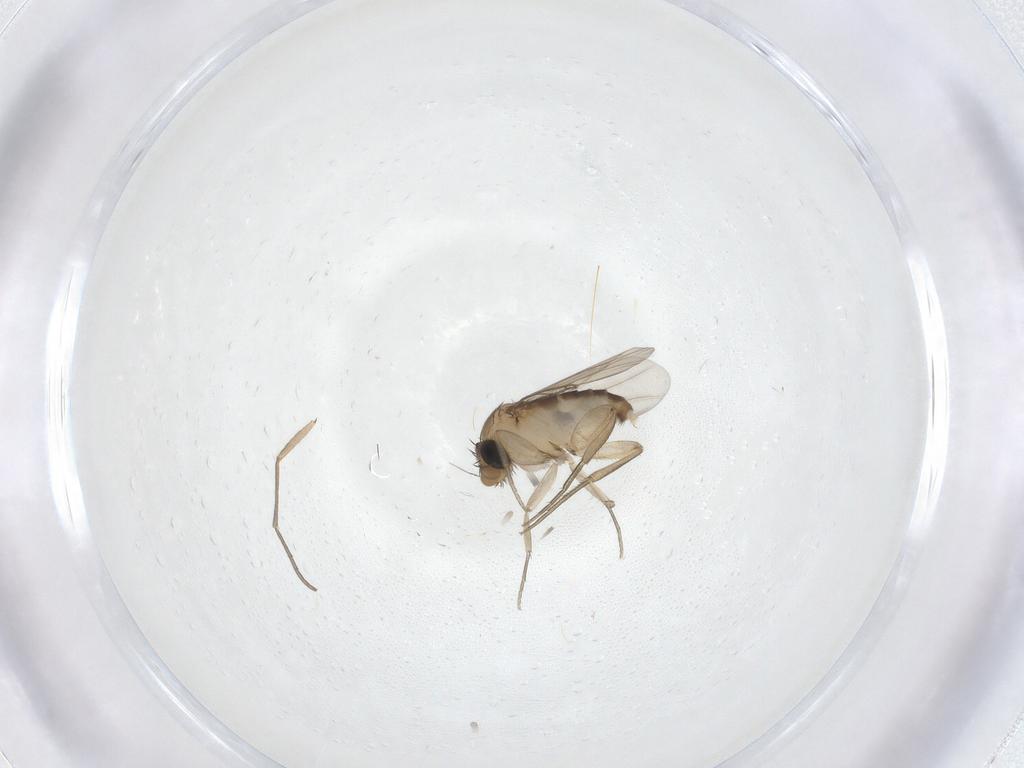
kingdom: Animalia
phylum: Arthropoda
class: Insecta
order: Diptera
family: Phoridae
